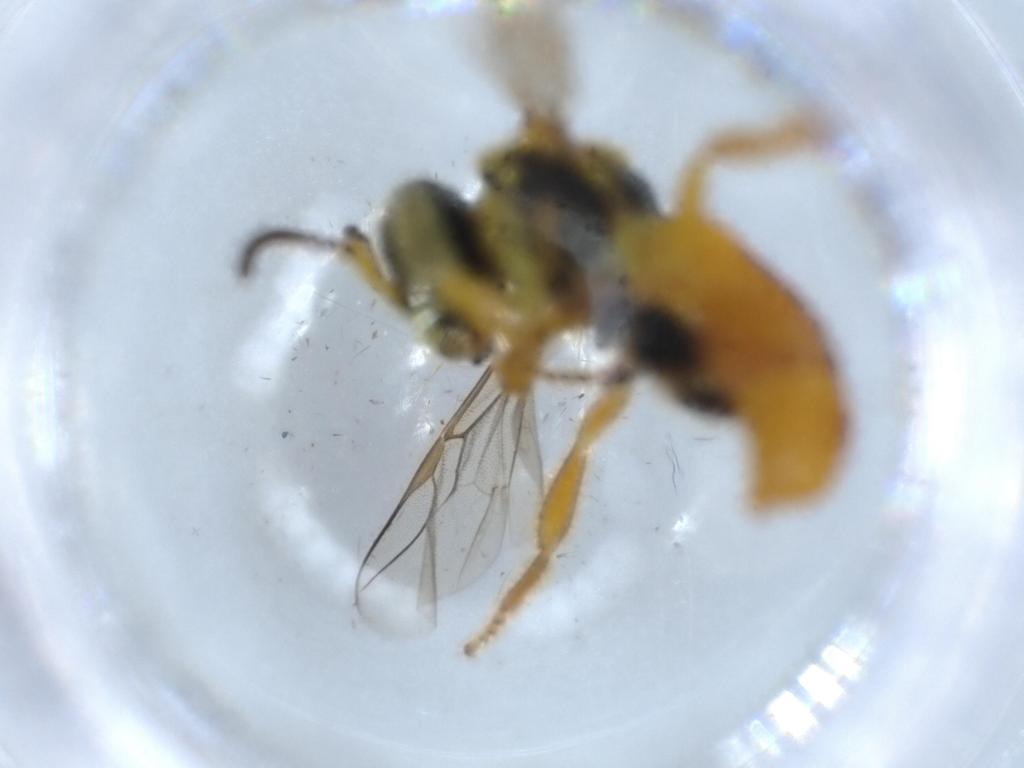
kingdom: Animalia
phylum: Arthropoda
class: Insecta
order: Hymenoptera
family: Apidae
